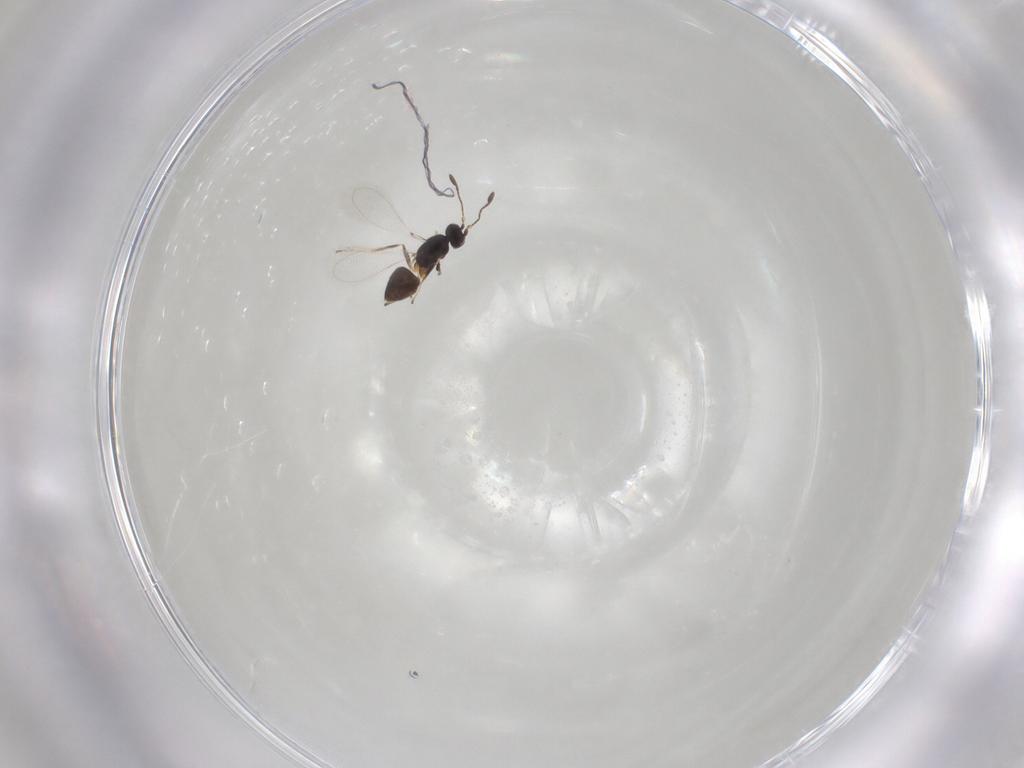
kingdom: Animalia
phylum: Arthropoda
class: Insecta
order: Hymenoptera
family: Mymaridae
